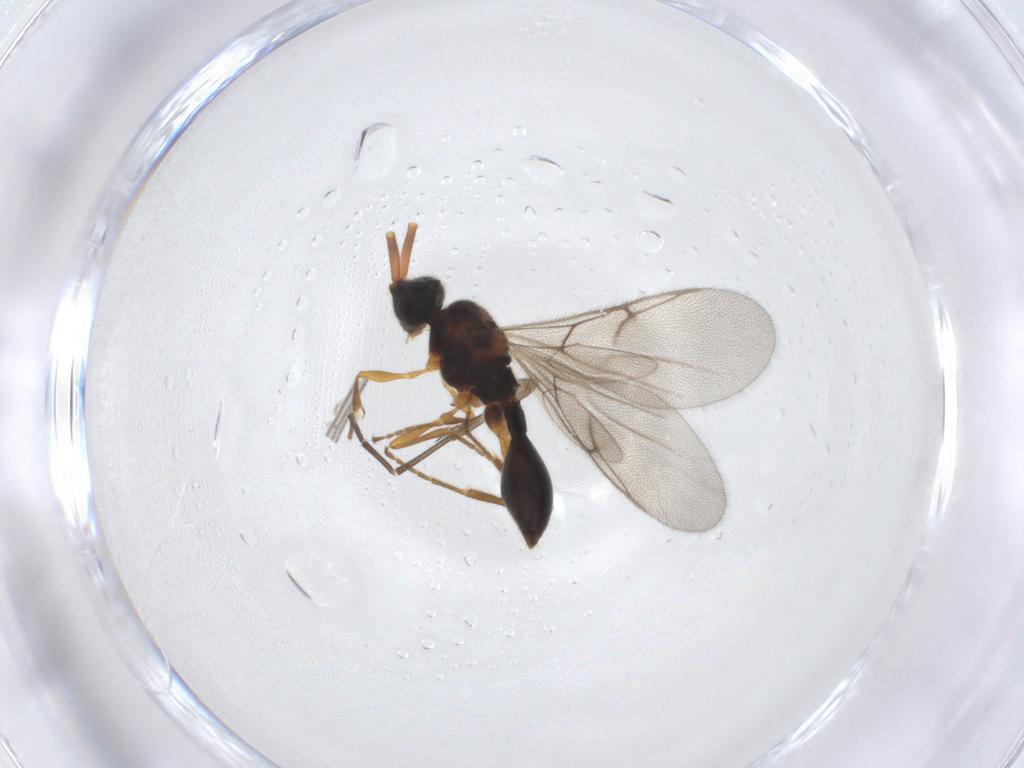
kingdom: Animalia
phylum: Arthropoda
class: Insecta
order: Hymenoptera
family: Diapriidae
